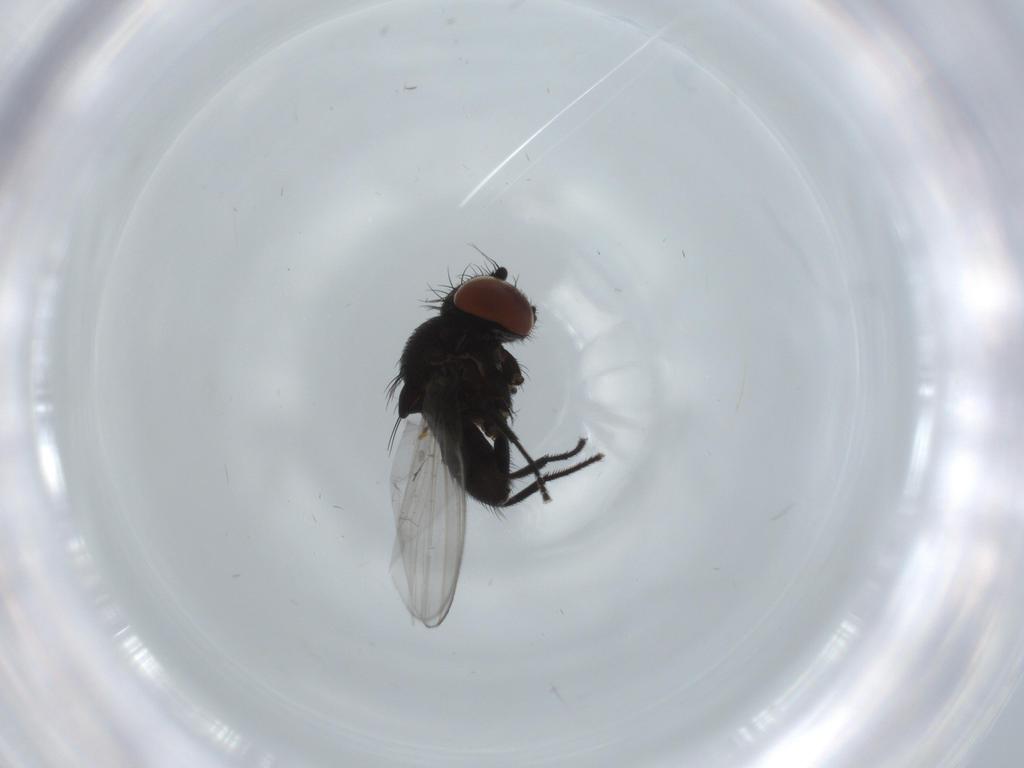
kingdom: Animalia
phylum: Arthropoda
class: Insecta
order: Diptera
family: Milichiidae
